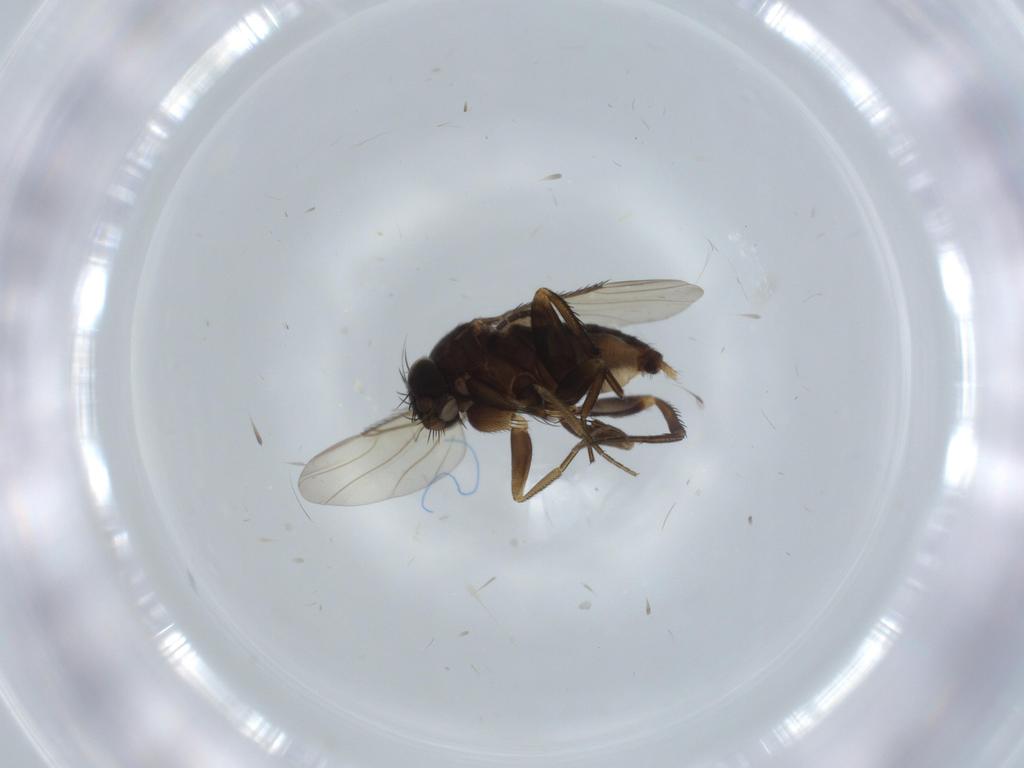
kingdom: Animalia
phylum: Arthropoda
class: Insecta
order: Diptera
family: Phoridae
